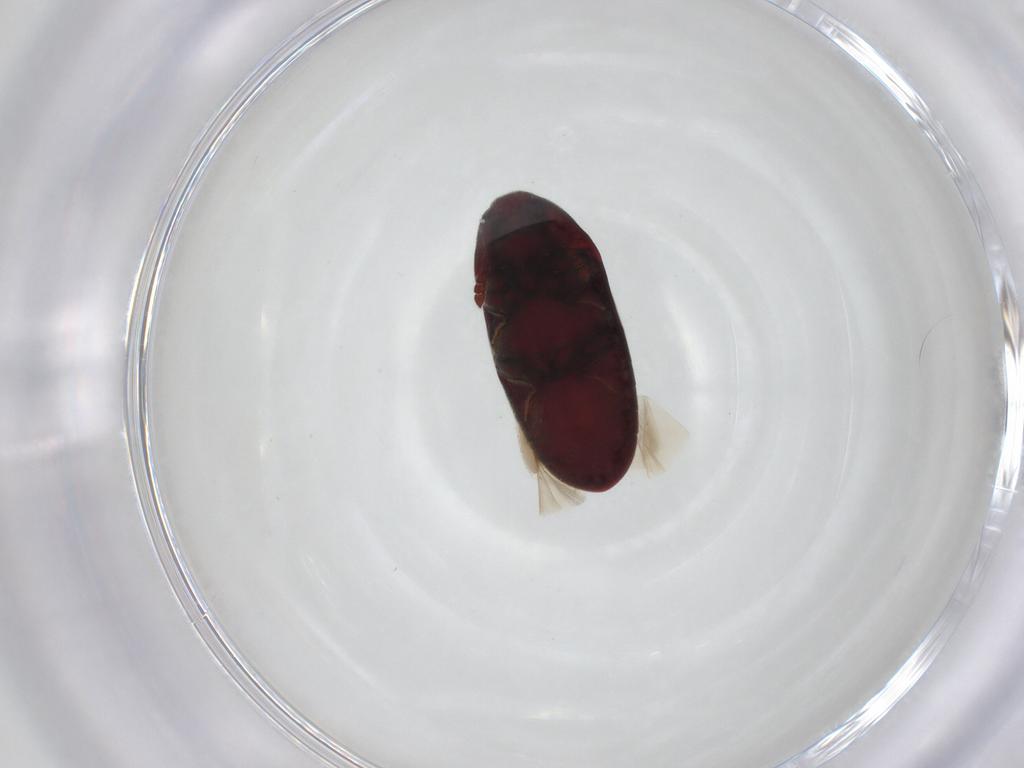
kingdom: Animalia
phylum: Arthropoda
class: Insecta
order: Coleoptera
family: Throscidae
